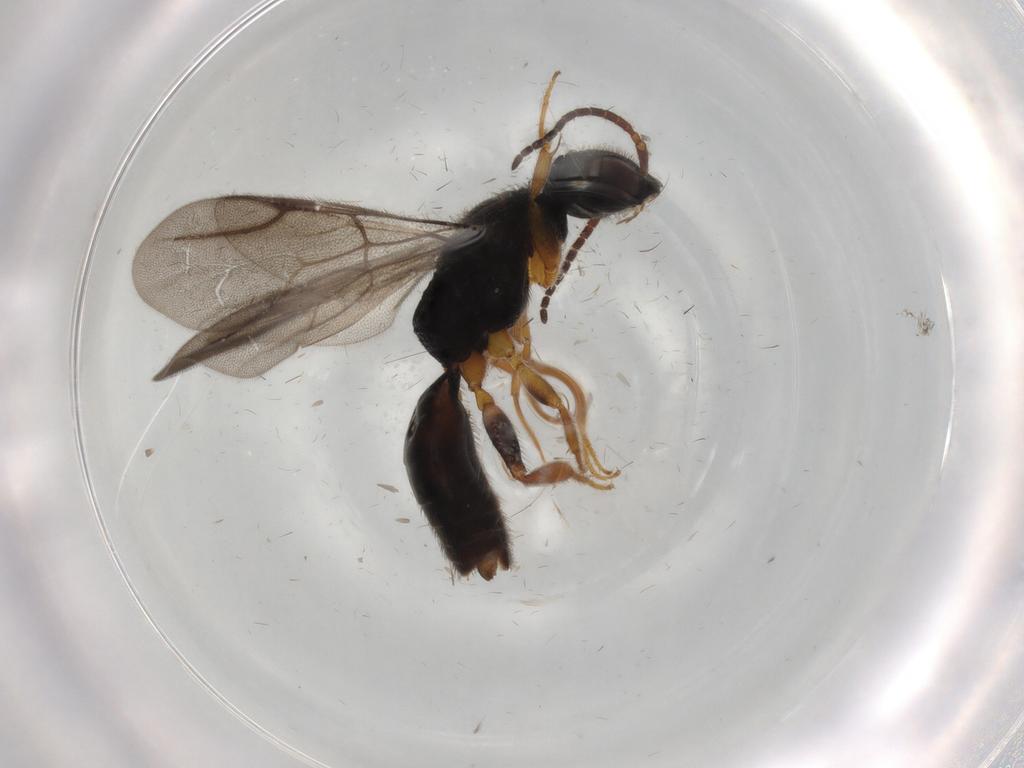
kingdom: Animalia
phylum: Arthropoda
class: Insecta
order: Hymenoptera
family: Bethylidae
